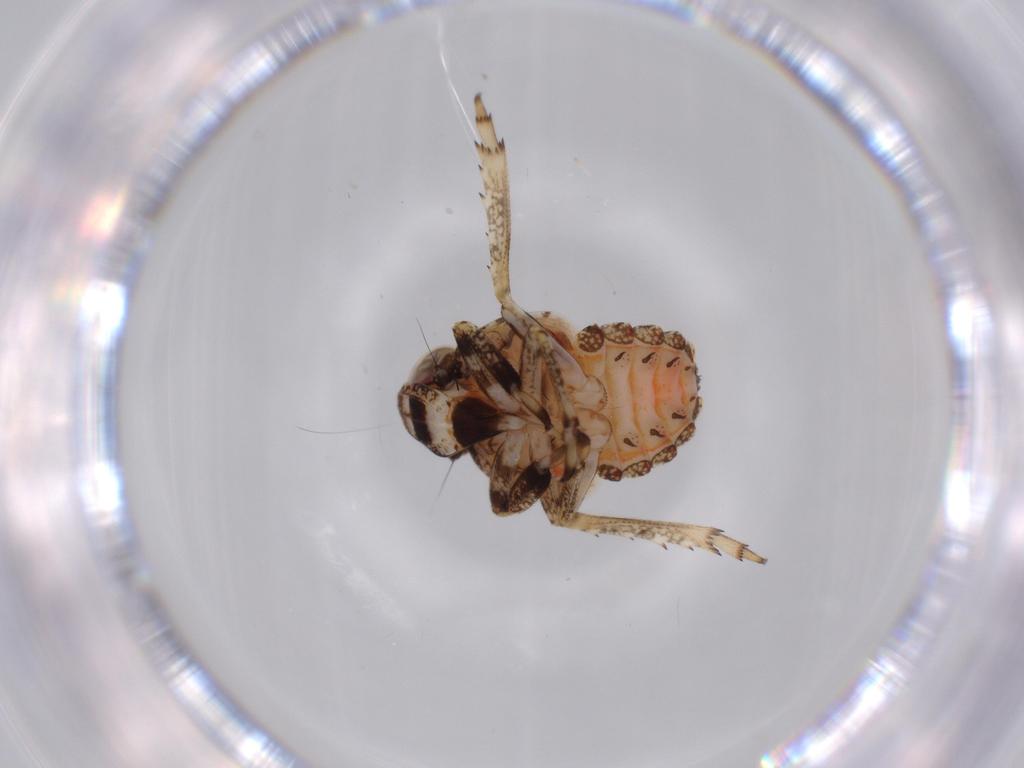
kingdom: Animalia
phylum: Arthropoda
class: Insecta
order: Hemiptera
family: Issidae
